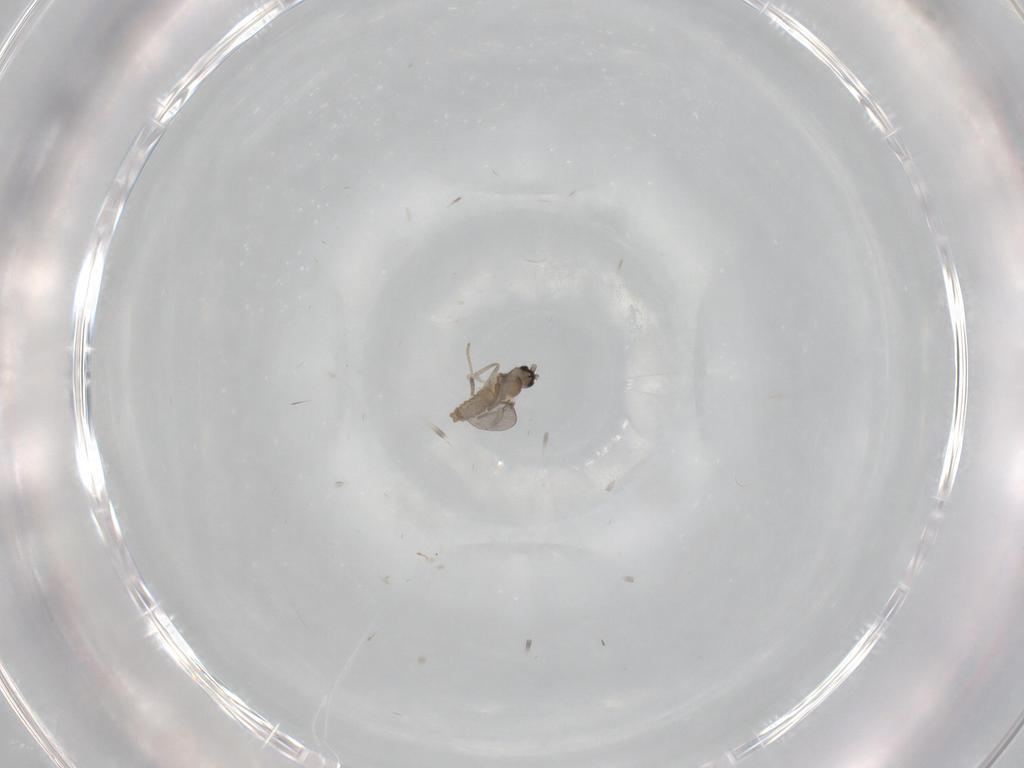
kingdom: Animalia
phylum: Arthropoda
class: Insecta
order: Diptera
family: Cecidomyiidae
